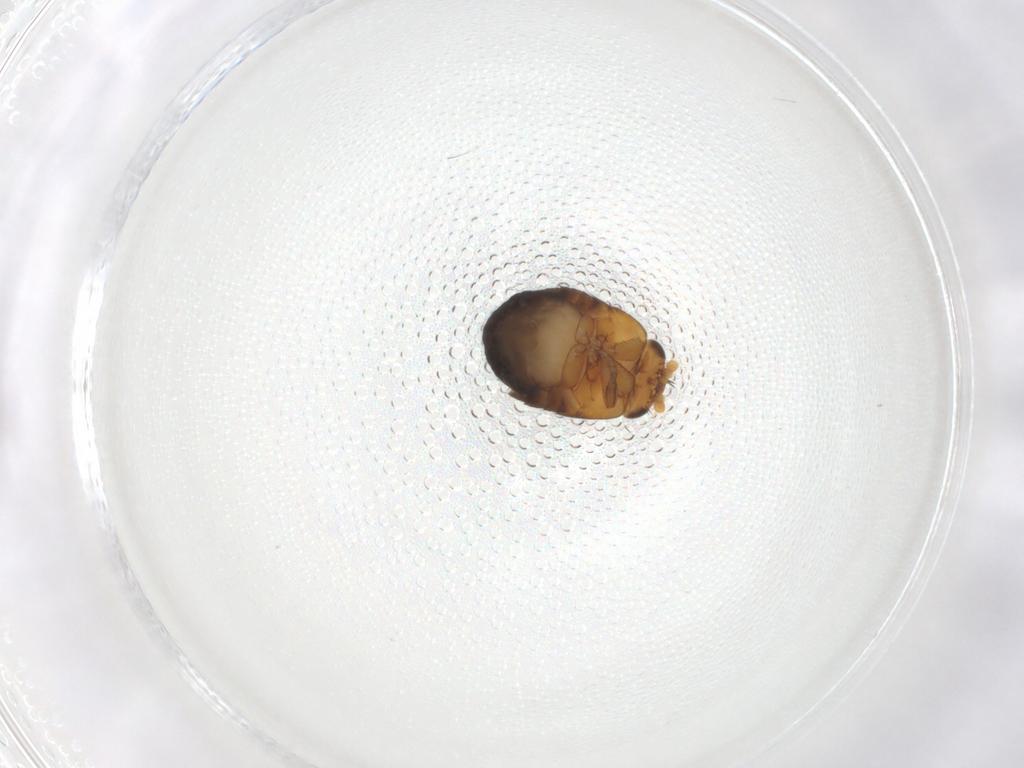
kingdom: Animalia
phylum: Arthropoda
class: Insecta
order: Diptera
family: Phoridae
